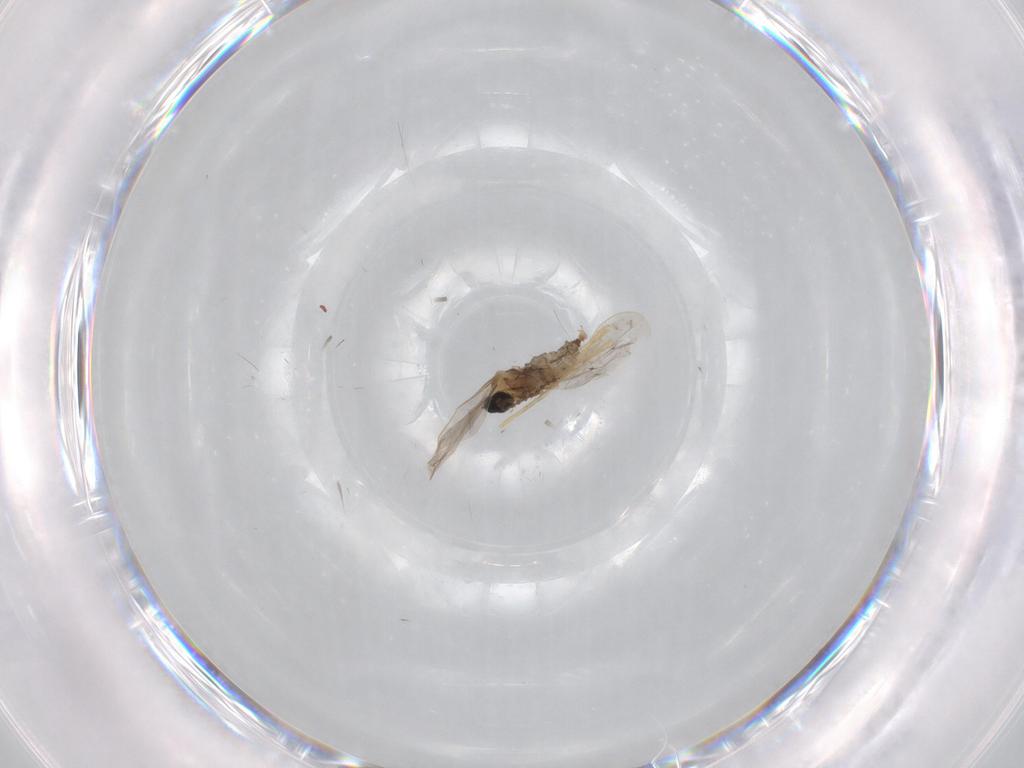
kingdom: Animalia
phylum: Arthropoda
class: Insecta
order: Diptera
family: Cecidomyiidae
